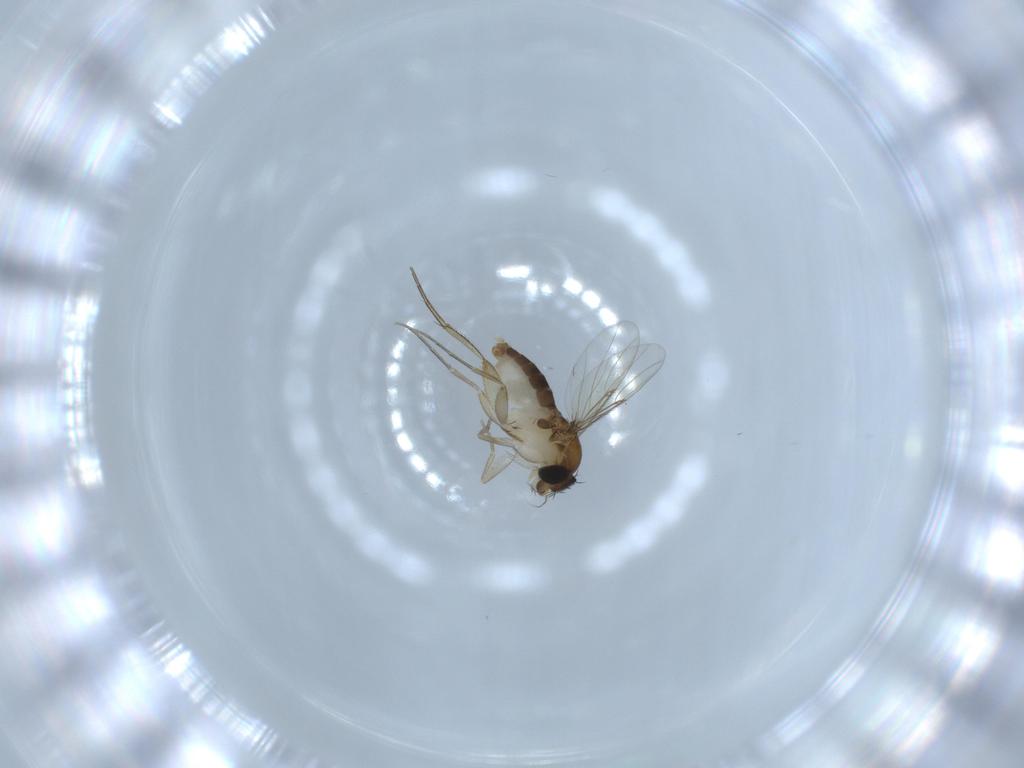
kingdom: Animalia
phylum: Arthropoda
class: Insecta
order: Diptera
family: Phoridae
